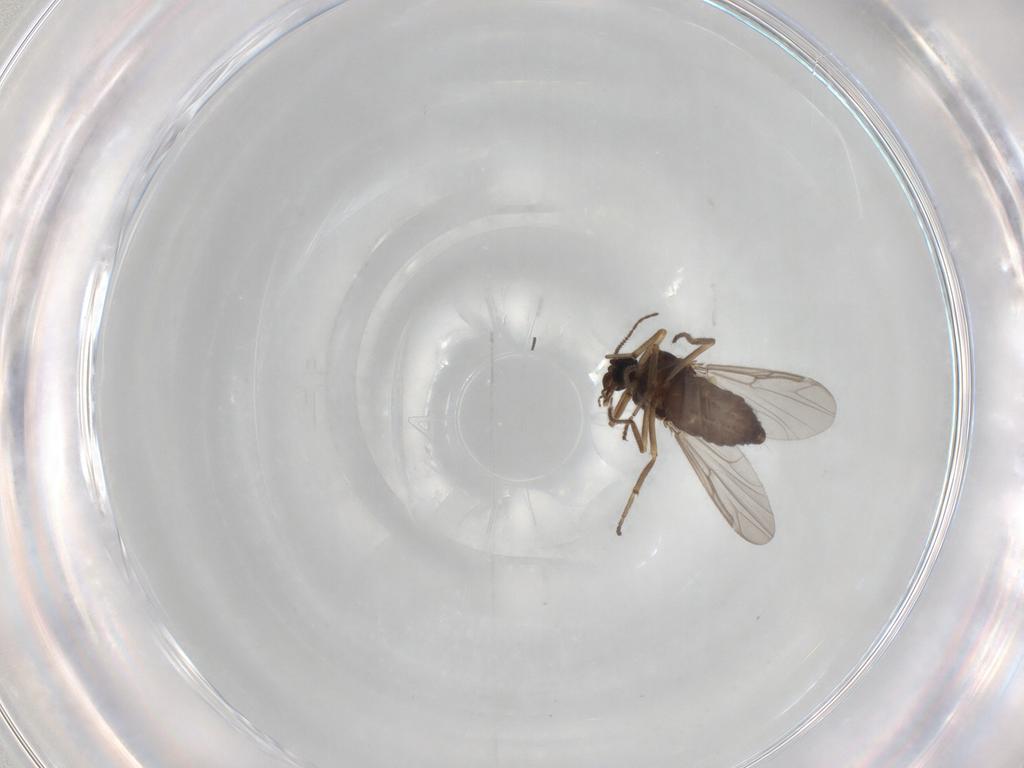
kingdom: Animalia
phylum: Arthropoda
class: Insecta
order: Diptera
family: Ceratopogonidae
